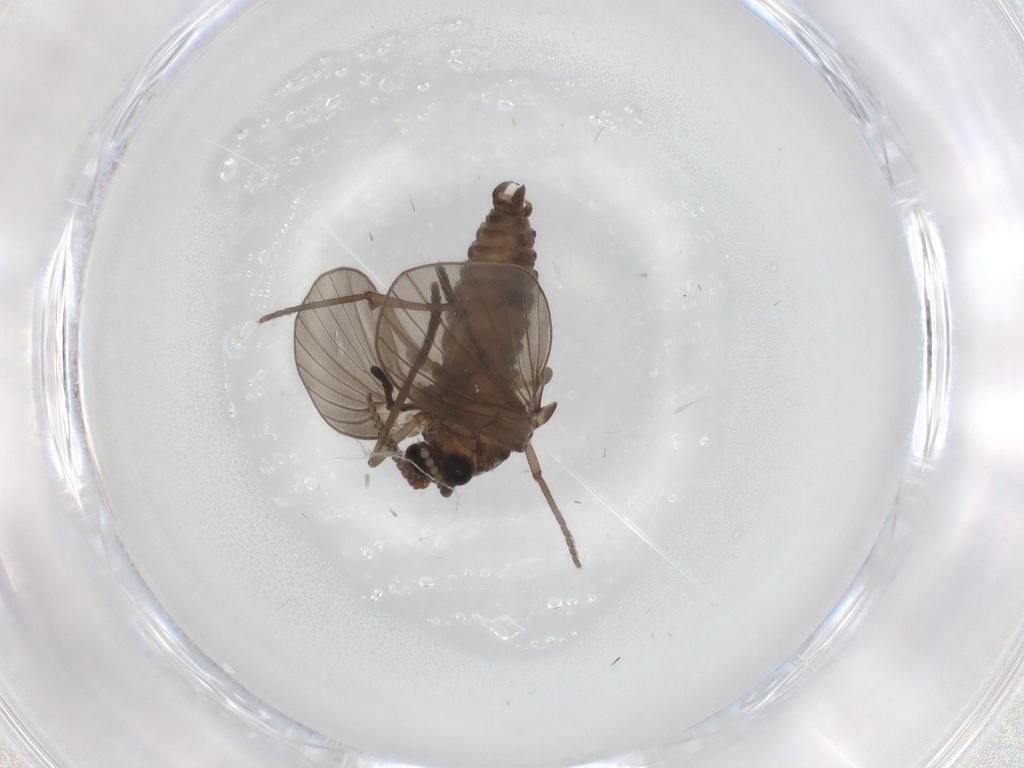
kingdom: Animalia
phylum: Arthropoda
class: Insecta
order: Diptera
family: Psychodidae
